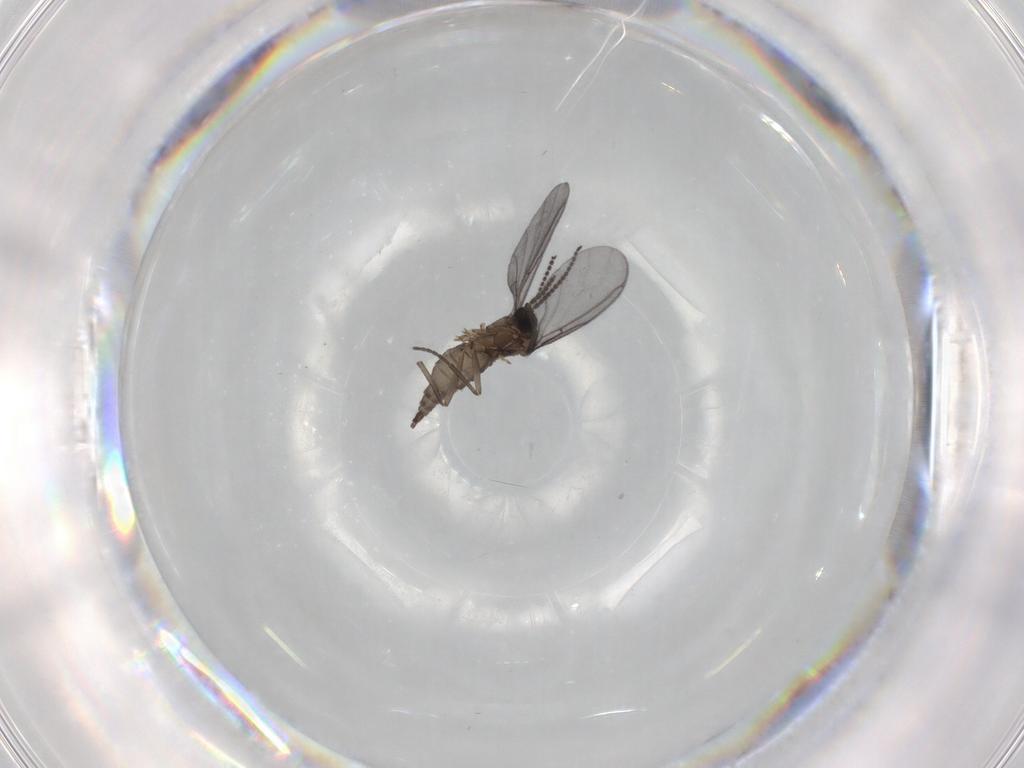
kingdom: Animalia
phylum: Arthropoda
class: Insecta
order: Diptera
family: Sciaridae
